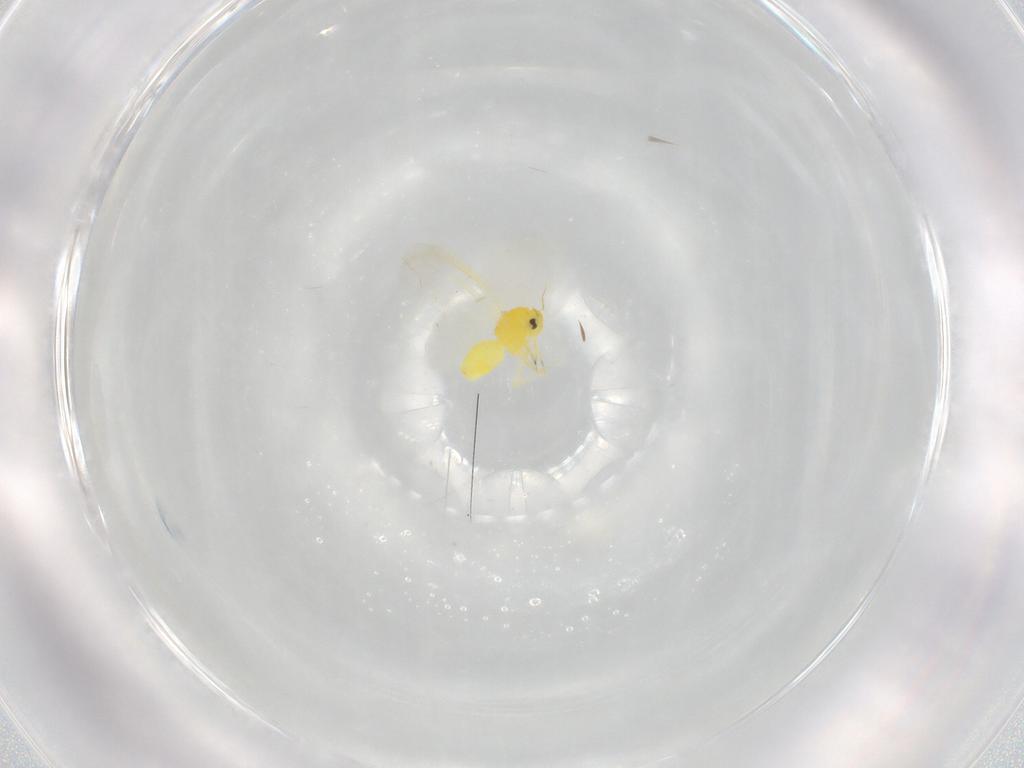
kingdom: Animalia
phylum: Arthropoda
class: Insecta
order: Hemiptera
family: Aleyrodidae
